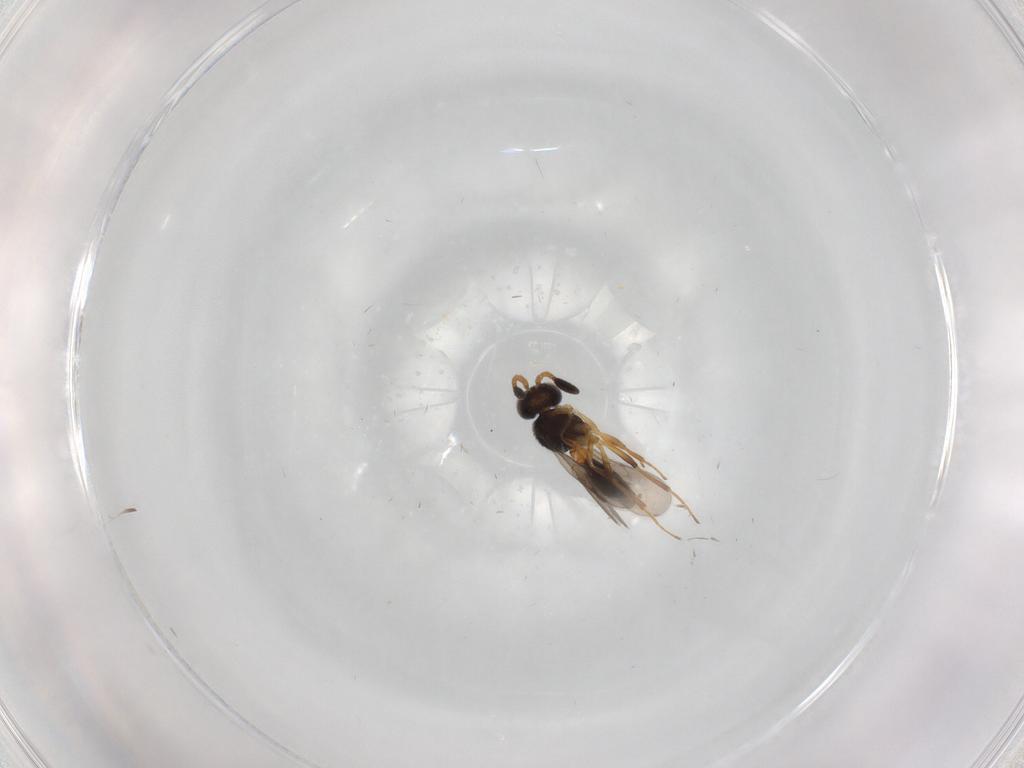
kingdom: Animalia
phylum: Arthropoda
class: Insecta
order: Hymenoptera
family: Scelionidae
